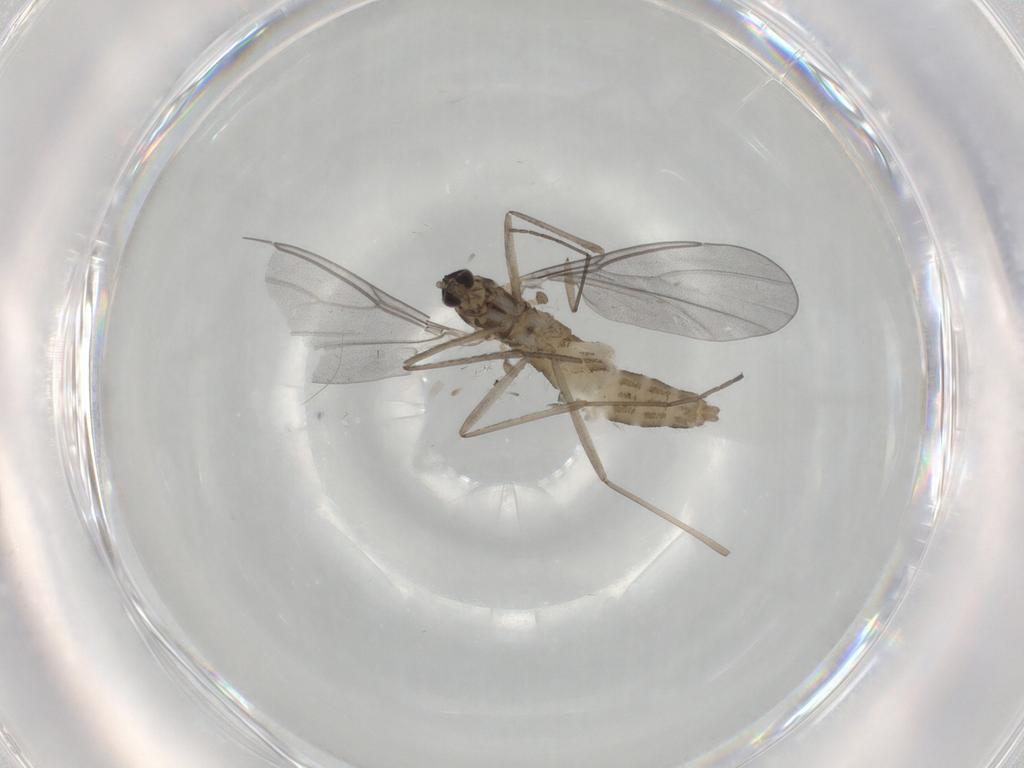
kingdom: Animalia
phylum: Arthropoda
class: Insecta
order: Diptera
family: Cecidomyiidae
